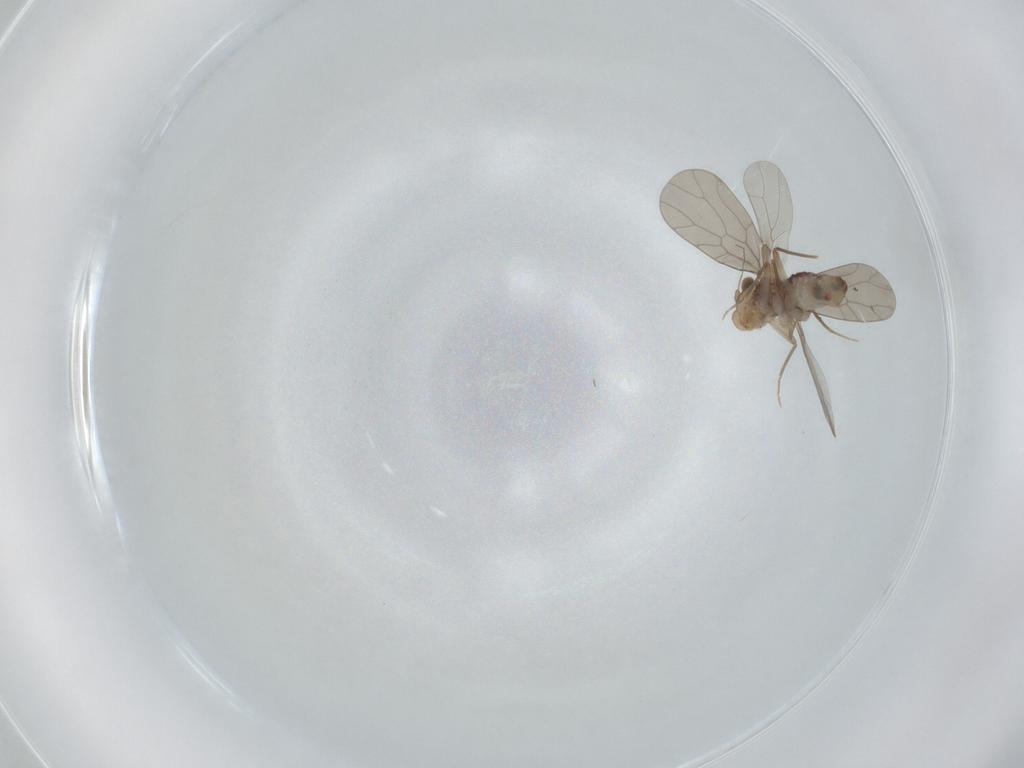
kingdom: Animalia
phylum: Arthropoda
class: Insecta
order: Psocodea
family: Lepidopsocidae
